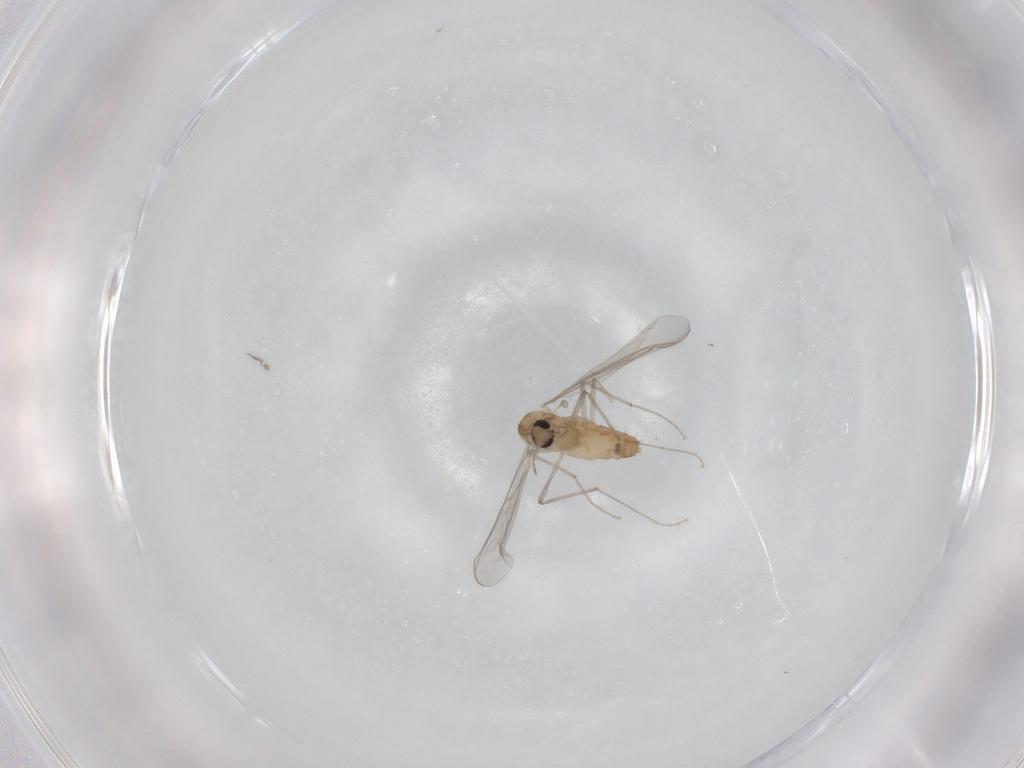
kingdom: Animalia
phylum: Arthropoda
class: Insecta
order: Diptera
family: Chironomidae
